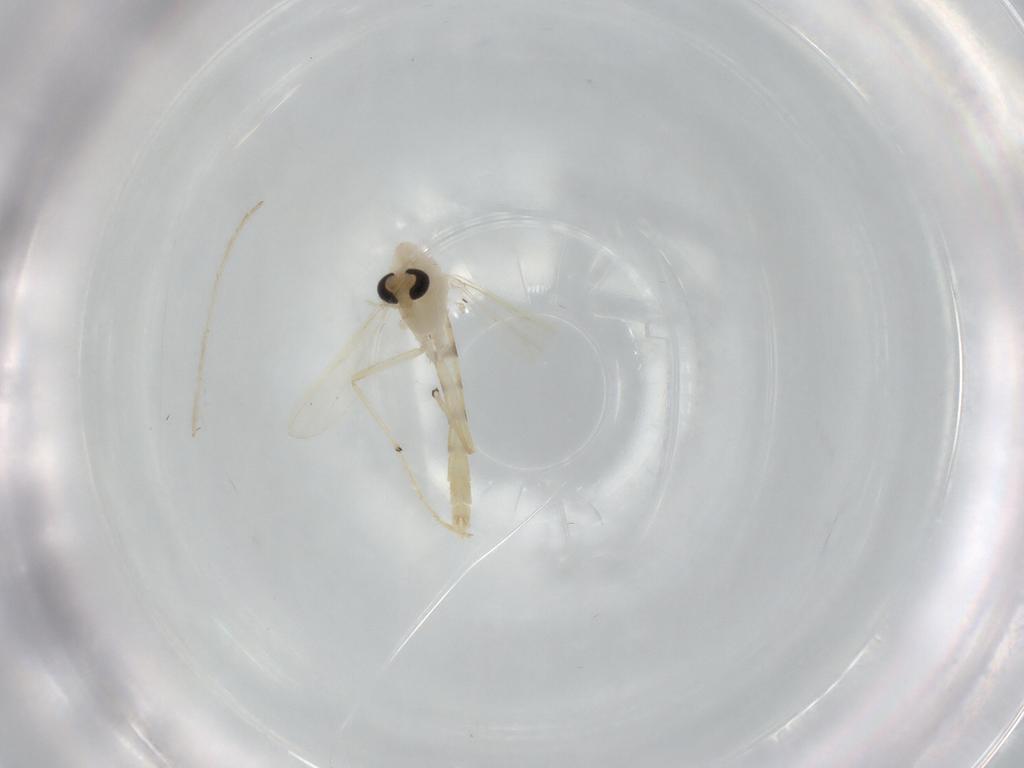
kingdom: Animalia
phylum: Arthropoda
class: Insecta
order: Diptera
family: Chironomidae
